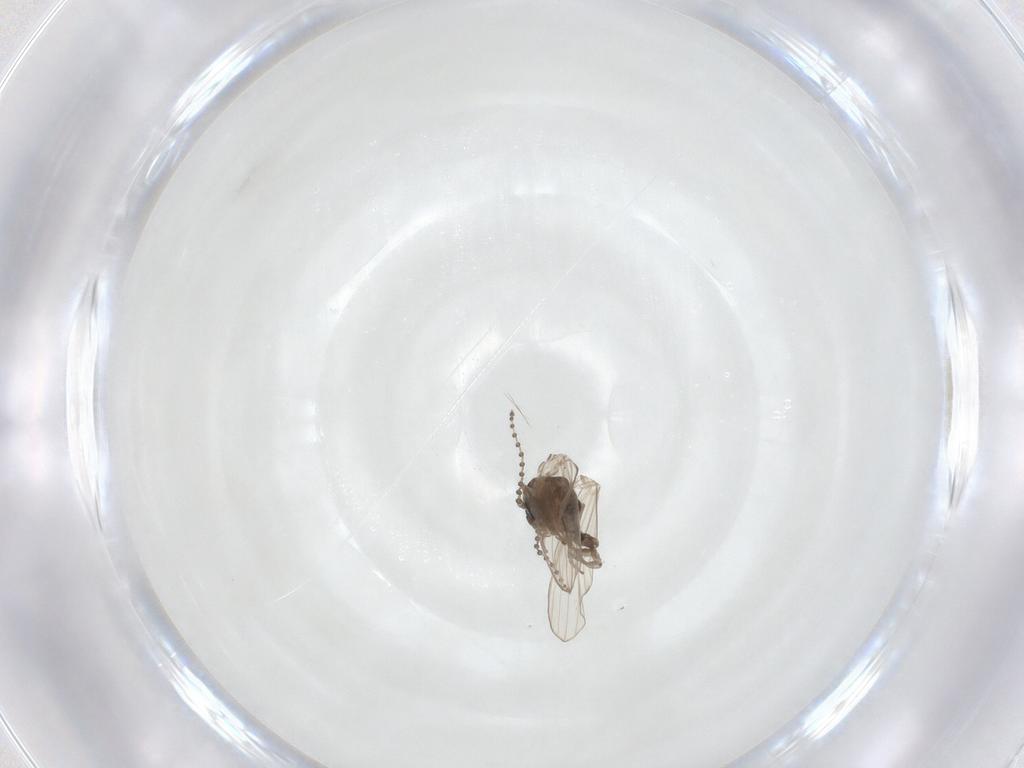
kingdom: Animalia
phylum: Arthropoda
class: Insecta
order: Diptera
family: Psychodidae
